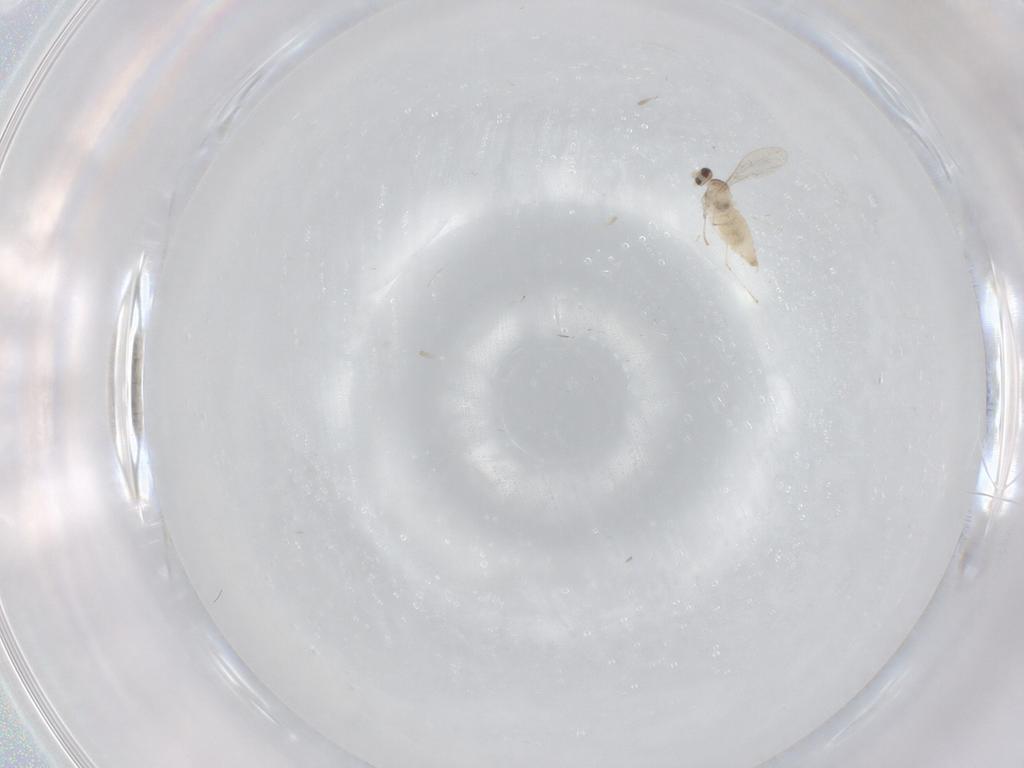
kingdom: Animalia
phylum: Arthropoda
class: Insecta
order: Diptera
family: Cecidomyiidae
